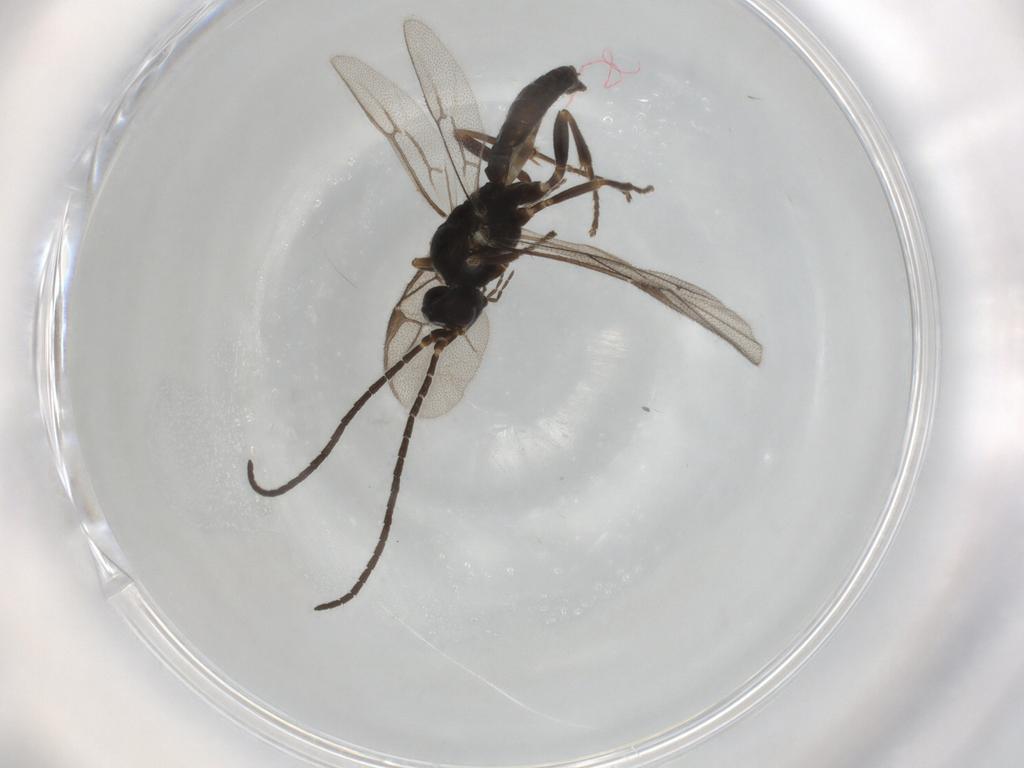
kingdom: Animalia
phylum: Arthropoda
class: Insecta
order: Hymenoptera
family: Ichneumonidae
